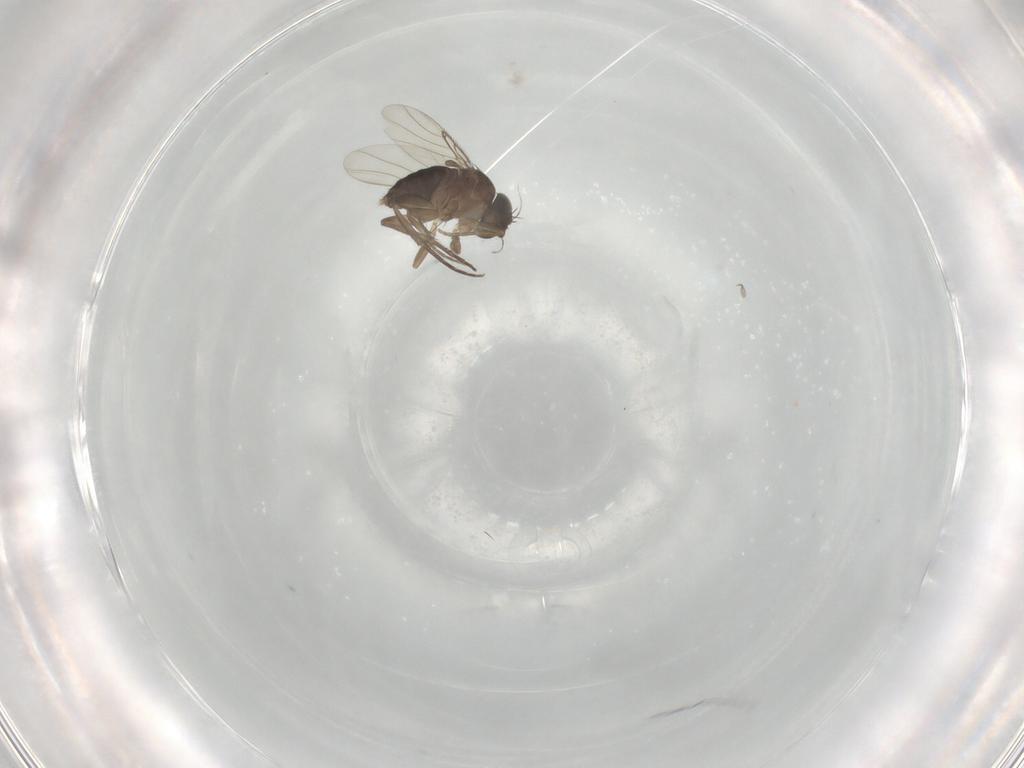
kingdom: Animalia
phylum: Arthropoda
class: Insecta
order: Diptera
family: Phoridae
